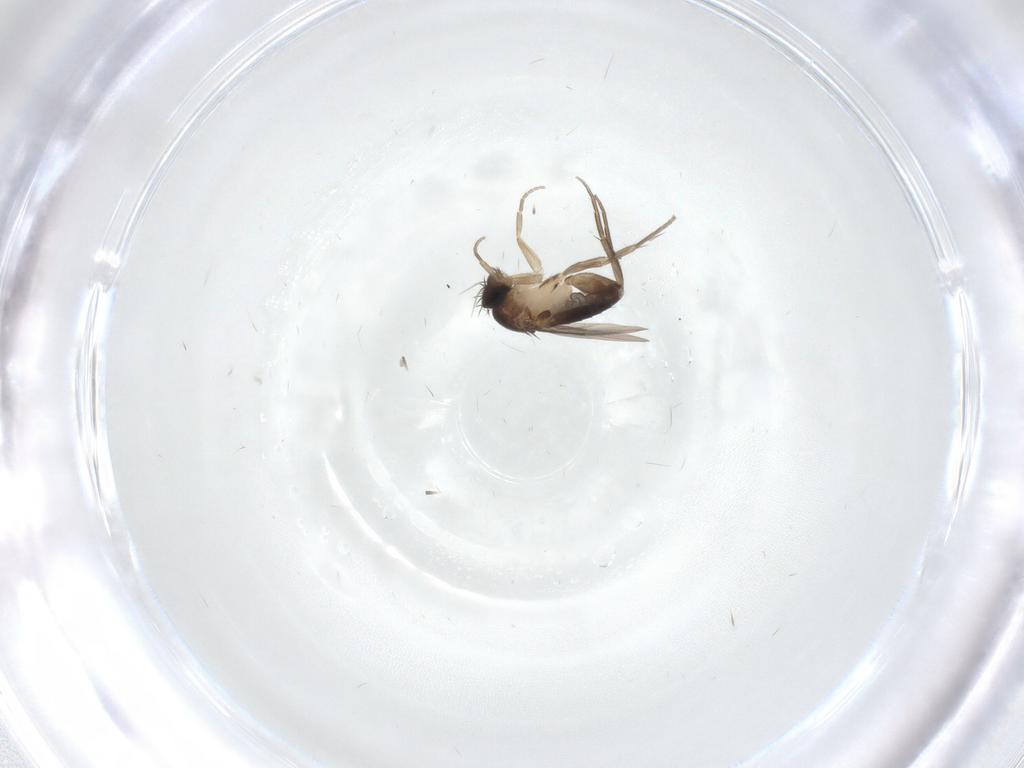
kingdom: Animalia
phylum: Arthropoda
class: Insecta
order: Diptera
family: Phoridae
